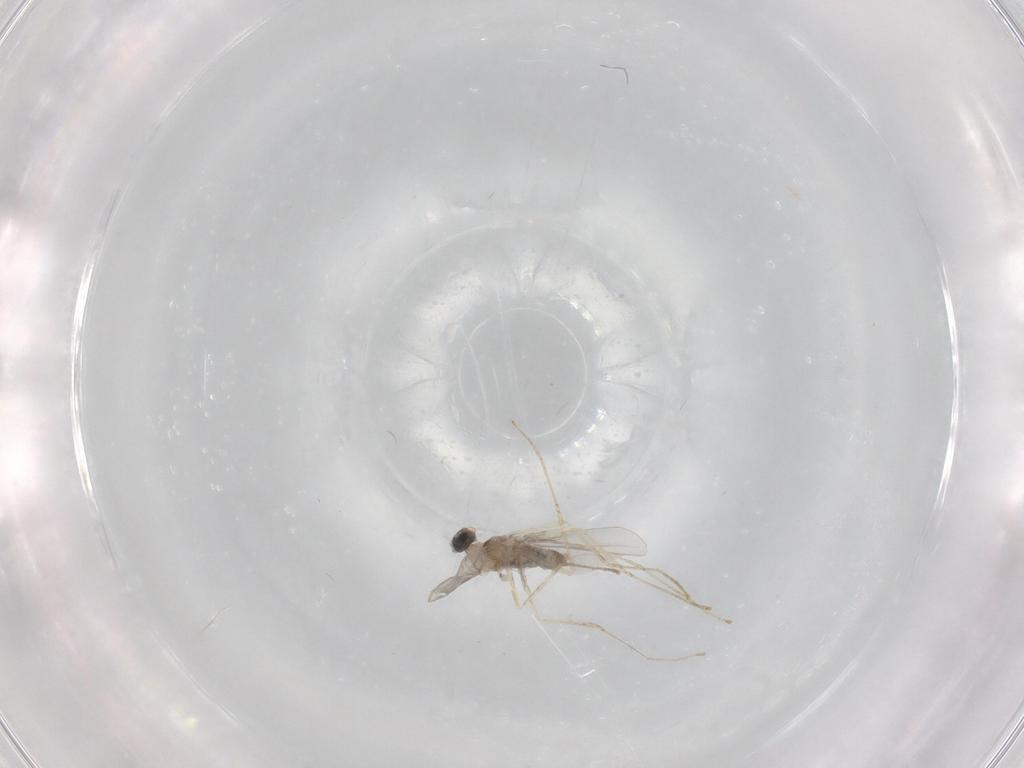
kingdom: Animalia
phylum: Arthropoda
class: Insecta
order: Diptera
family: Cecidomyiidae
